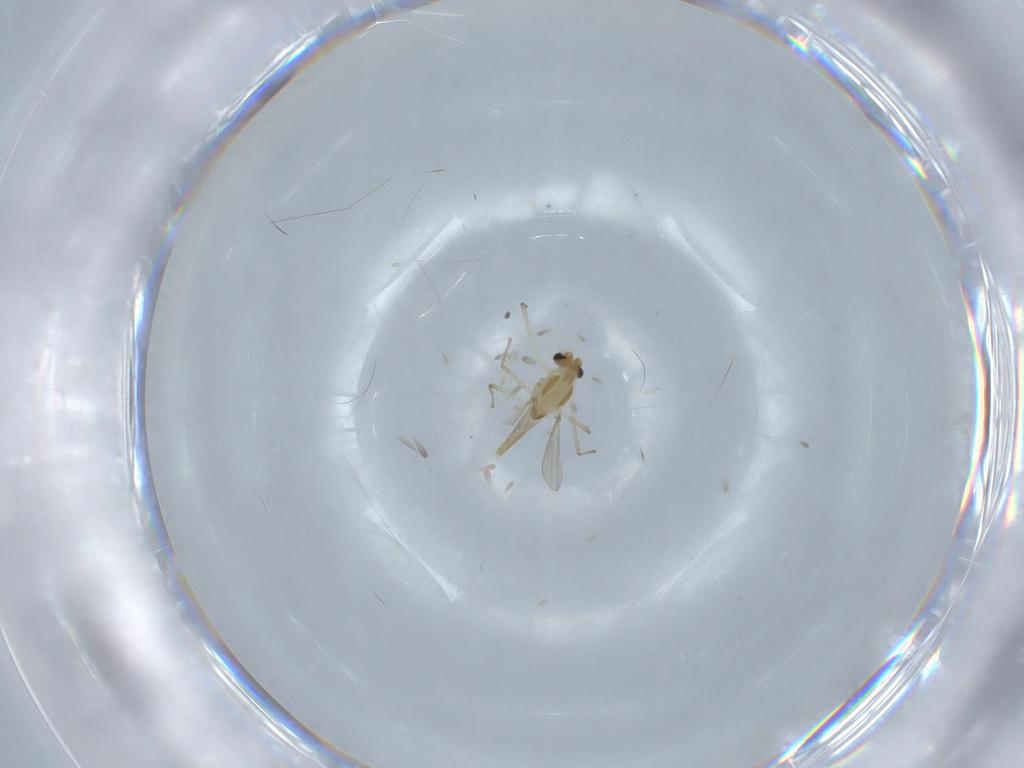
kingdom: Animalia
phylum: Arthropoda
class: Insecta
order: Diptera
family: Chironomidae
